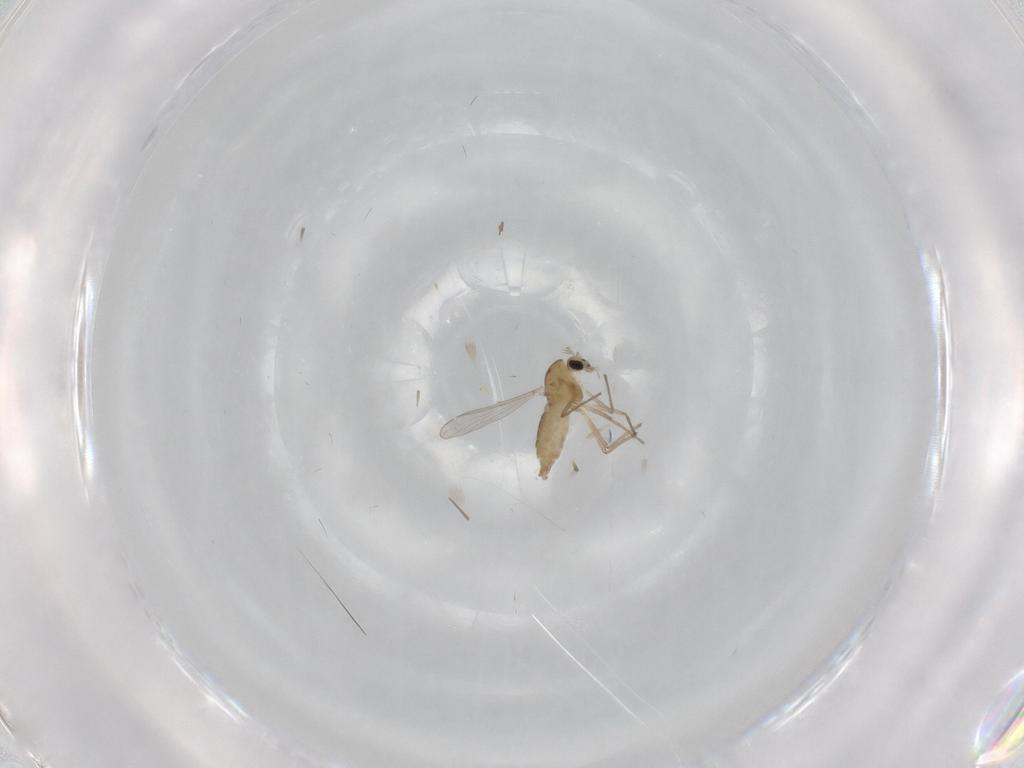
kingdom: Animalia
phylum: Arthropoda
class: Insecta
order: Diptera
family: Chironomidae
